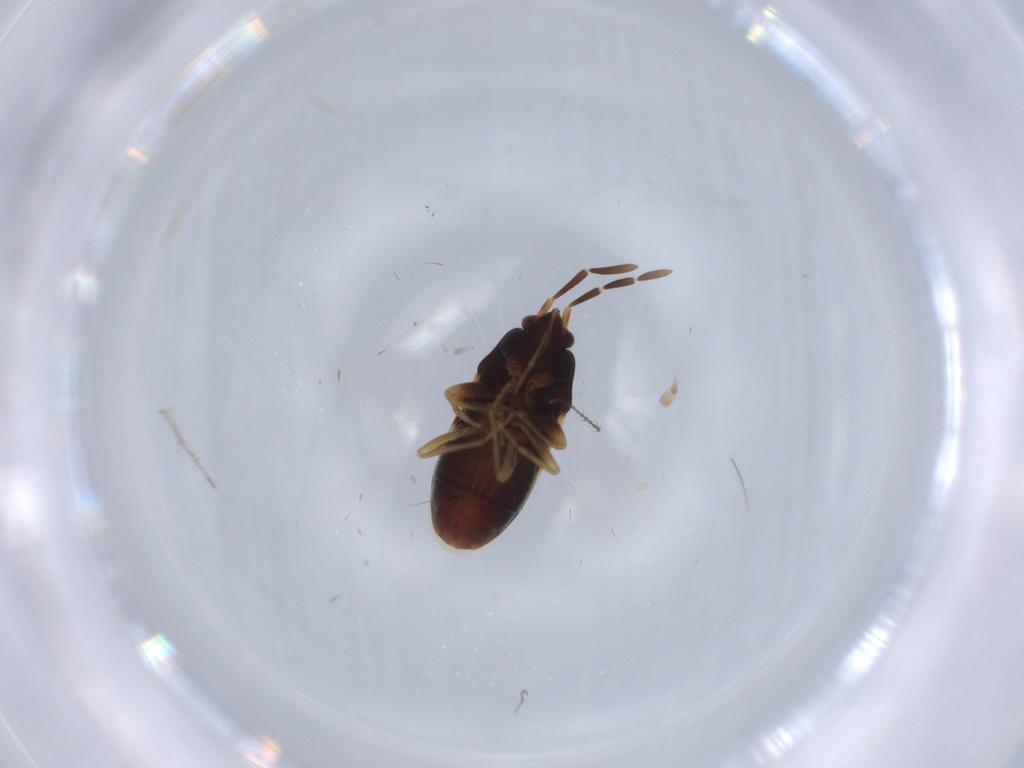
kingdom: Animalia
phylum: Arthropoda
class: Insecta
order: Hemiptera
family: Rhyparochromidae
